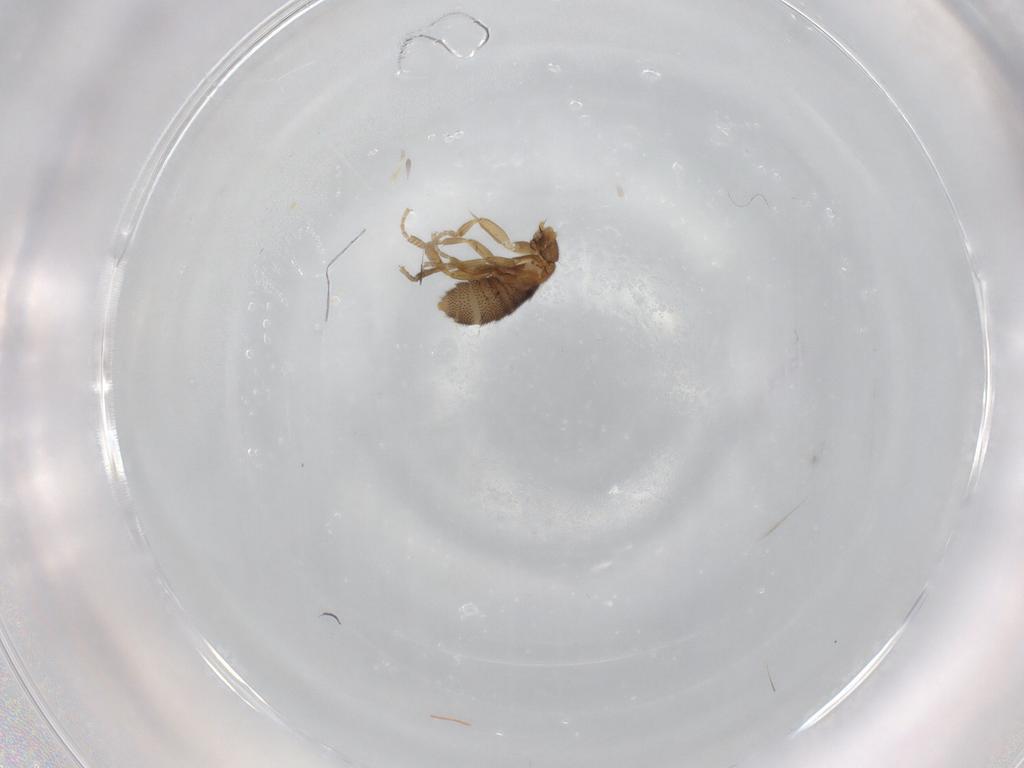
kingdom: Animalia
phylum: Arthropoda
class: Insecta
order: Diptera
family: Phoridae
